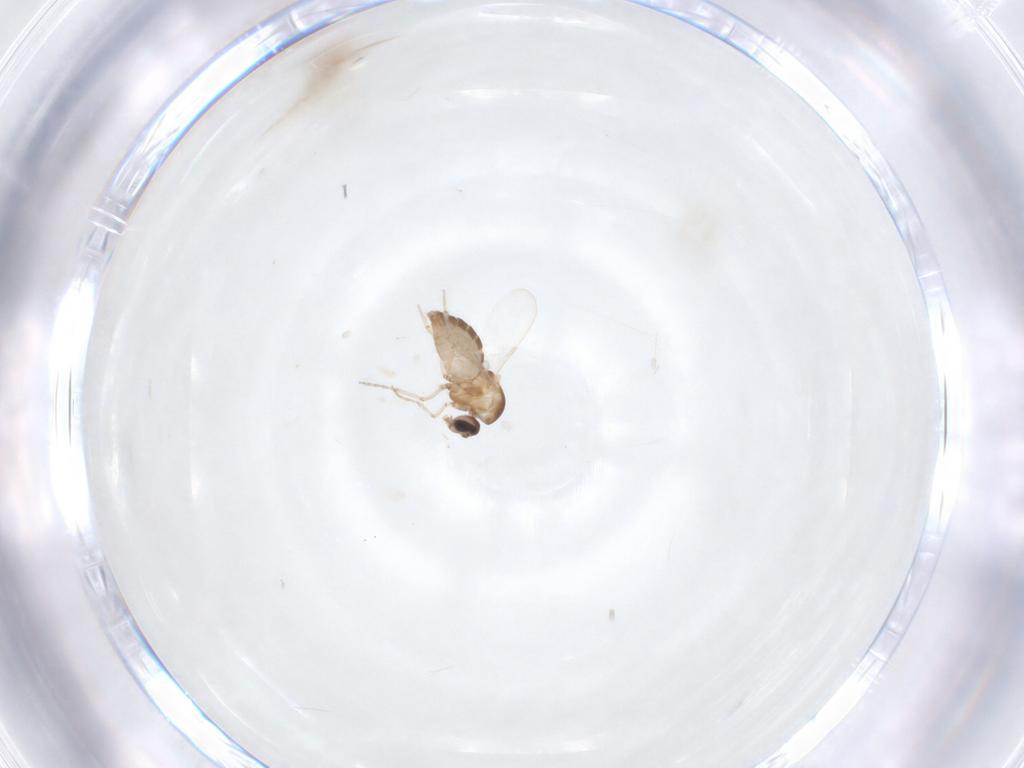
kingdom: Animalia
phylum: Arthropoda
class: Insecta
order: Diptera
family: Ceratopogonidae
